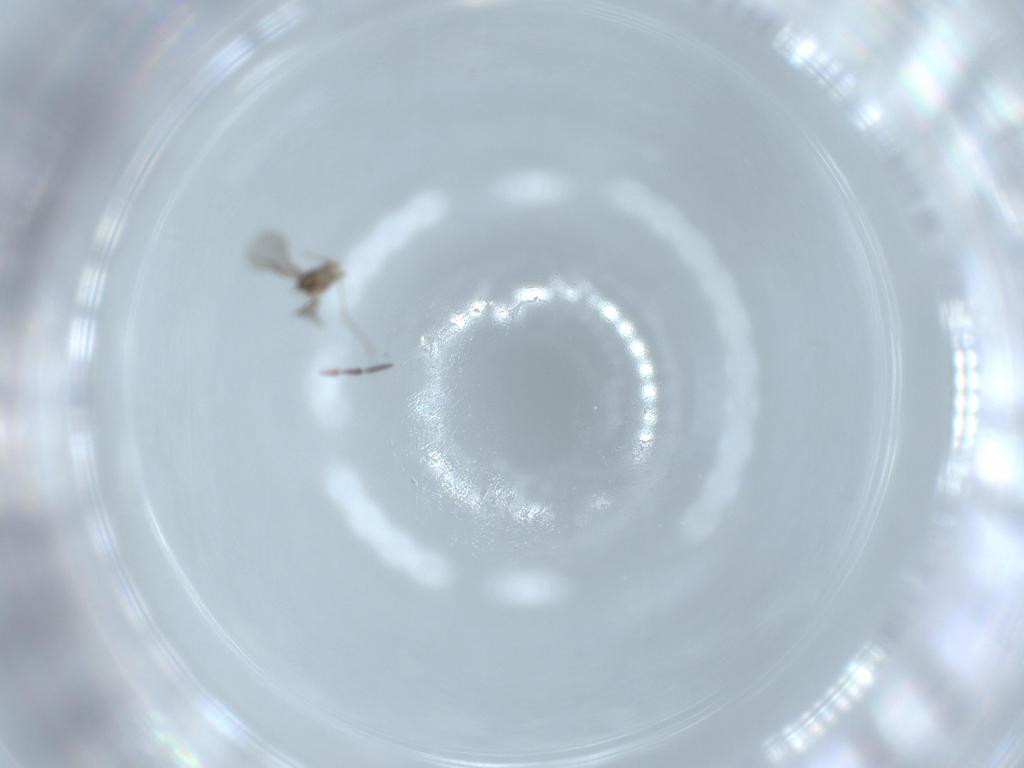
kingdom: Animalia
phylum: Arthropoda
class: Insecta
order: Diptera
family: Cecidomyiidae
